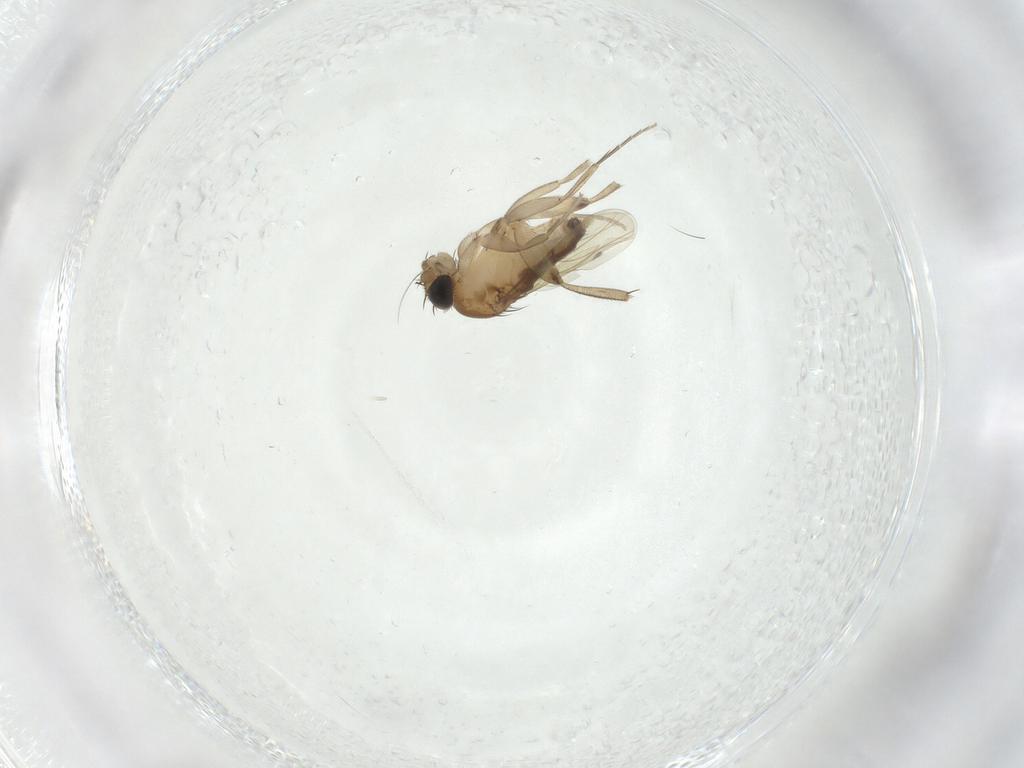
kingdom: Animalia
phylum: Arthropoda
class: Insecta
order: Diptera
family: Phoridae
